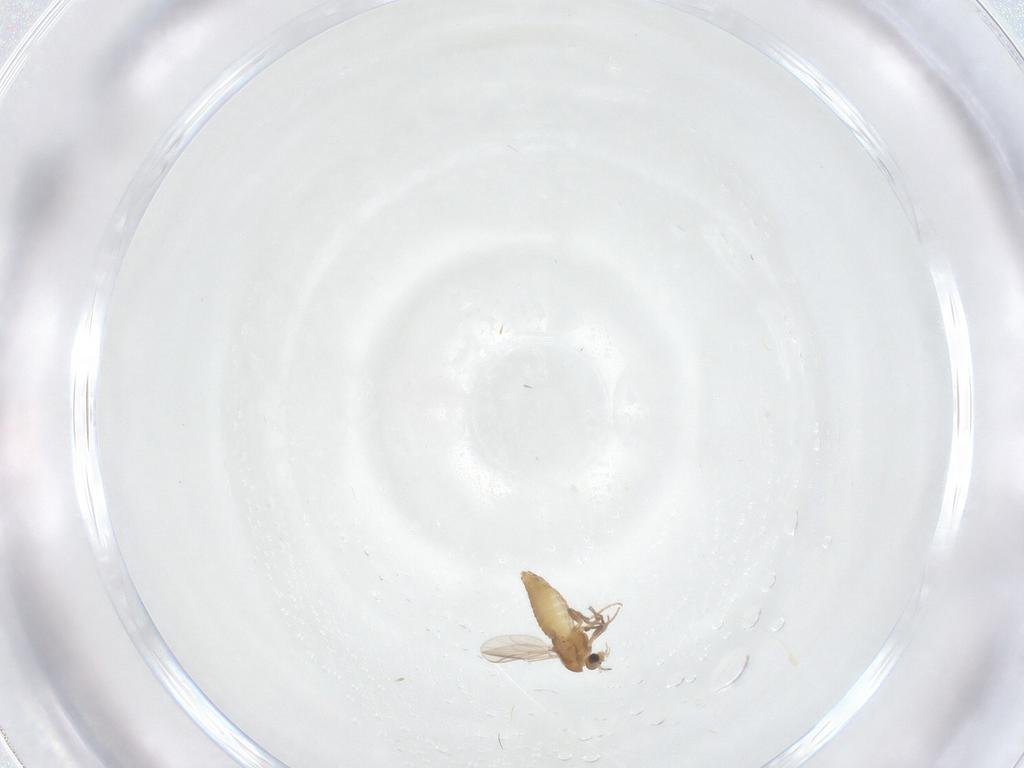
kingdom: Animalia
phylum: Arthropoda
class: Insecta
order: Diptera
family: Chironomidae
